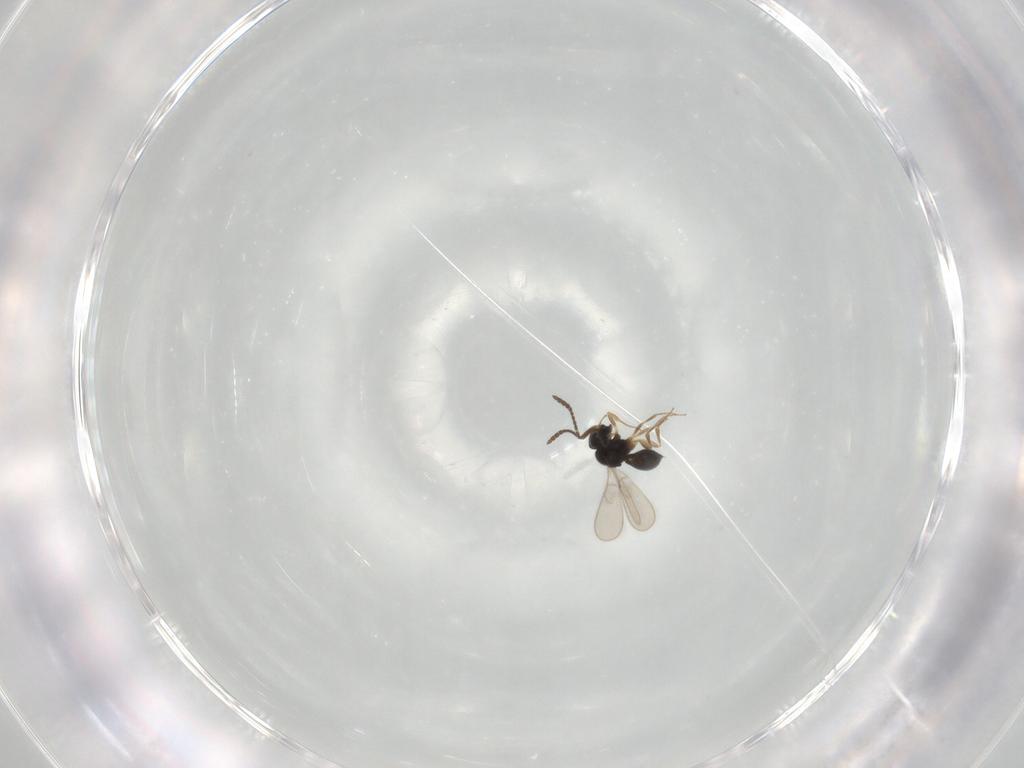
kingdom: Animalia
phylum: Arthropoda
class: Insecta
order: Hymenoptera
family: Scelionidae
